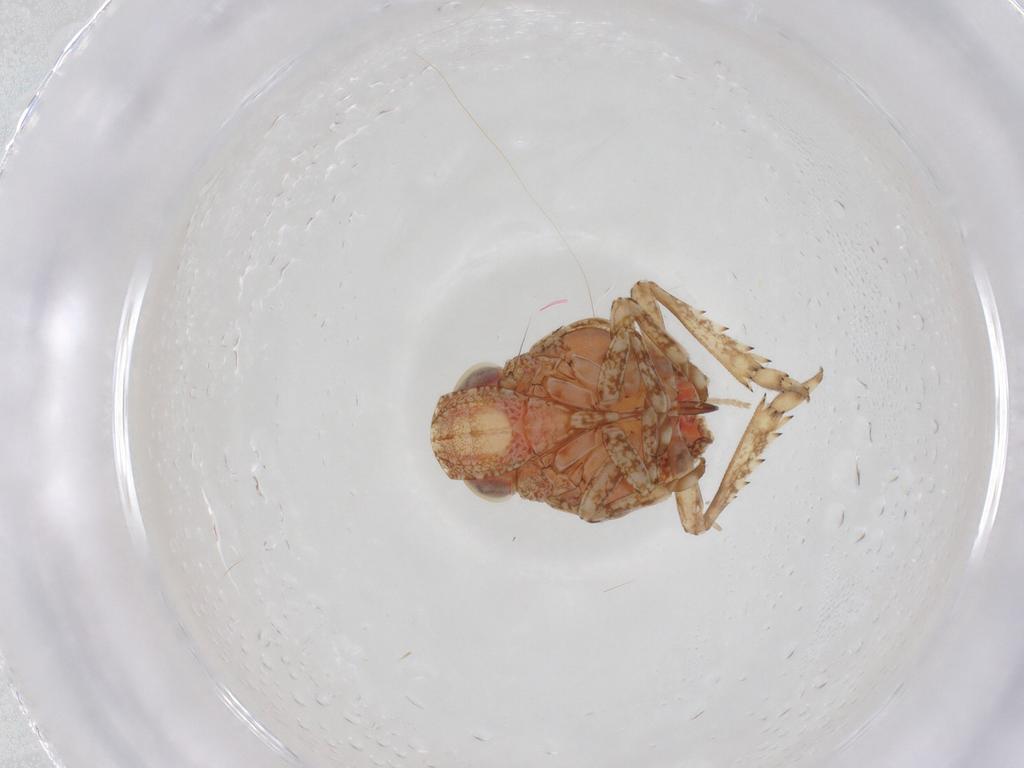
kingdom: Animalia
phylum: Arthropoda
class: Insecta
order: Hemiptera
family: Nogodinidae
